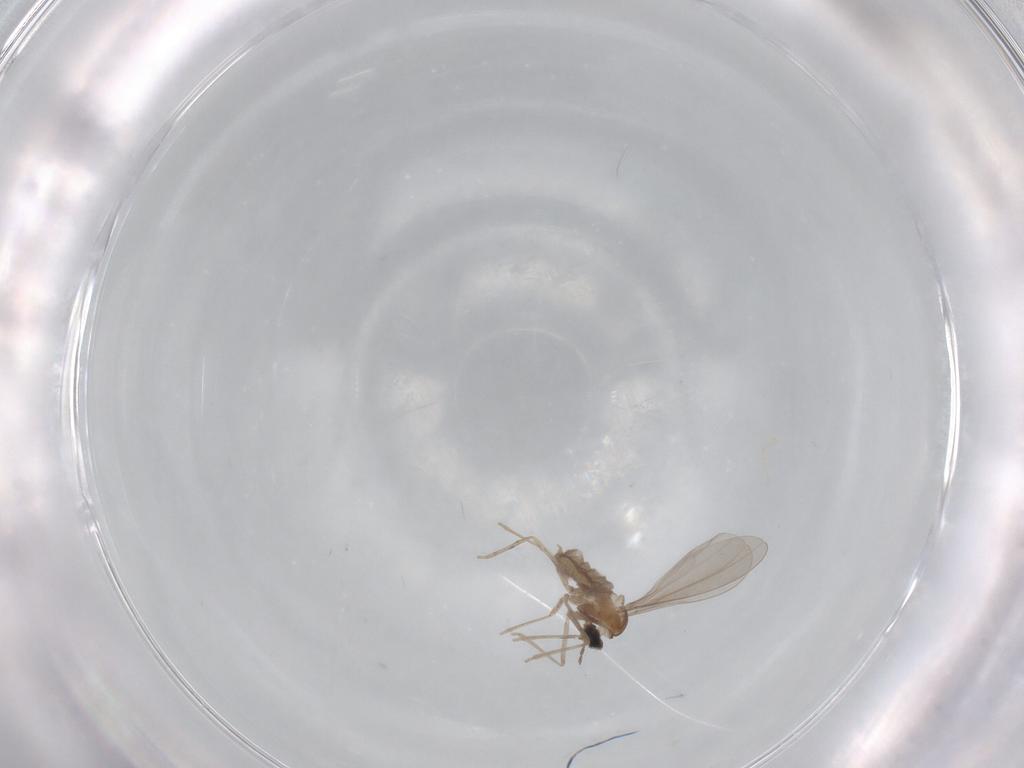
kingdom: Animalia
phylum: Arthropoda
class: Insecta
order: Diptera
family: Cecidomyiidae
